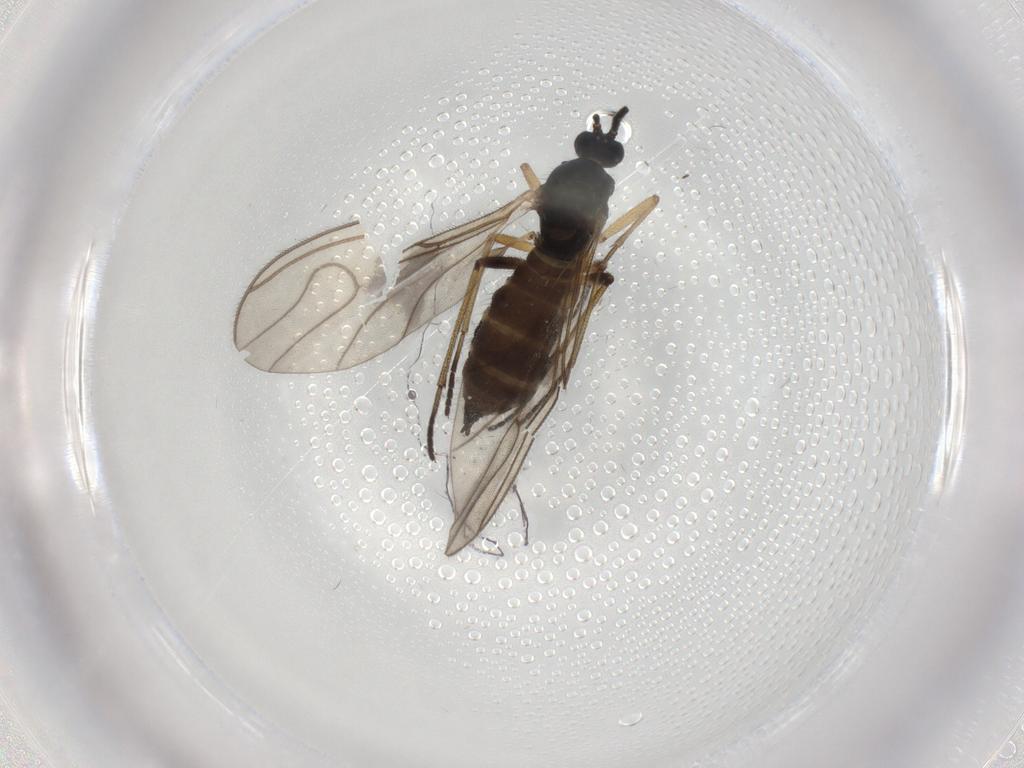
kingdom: Animalia
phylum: Arthropoda
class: Insecta
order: Diptera
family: Sciaridae
